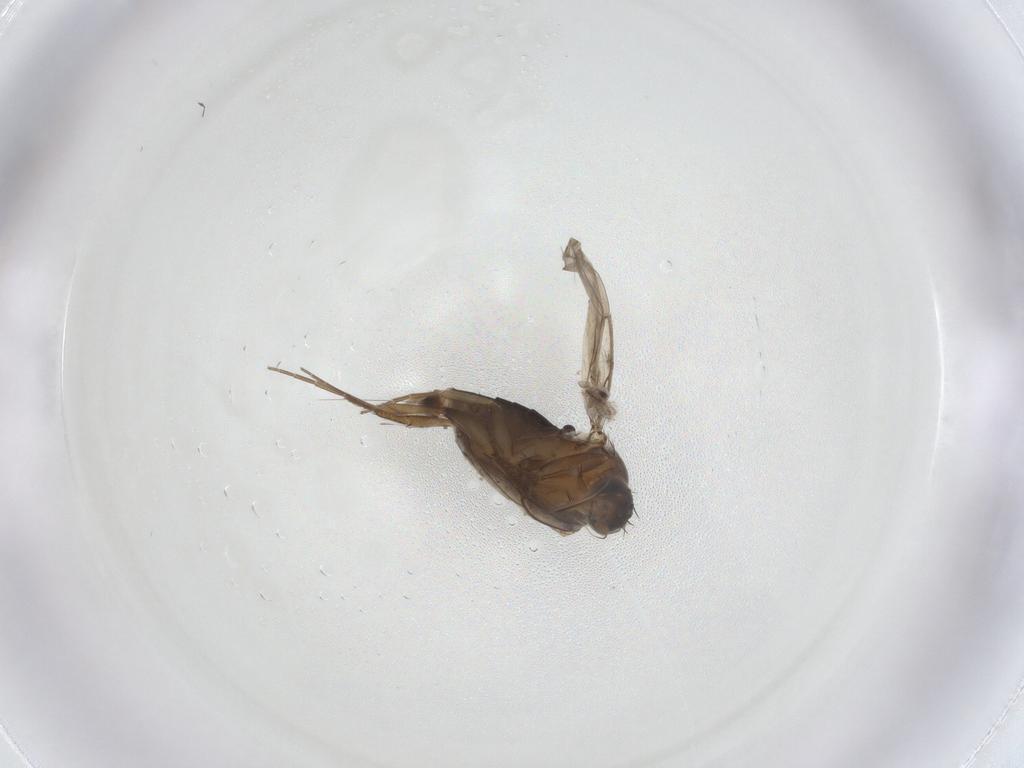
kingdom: Animalia
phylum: Arthropoda
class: Insecta
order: Diptera
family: Phoridae
